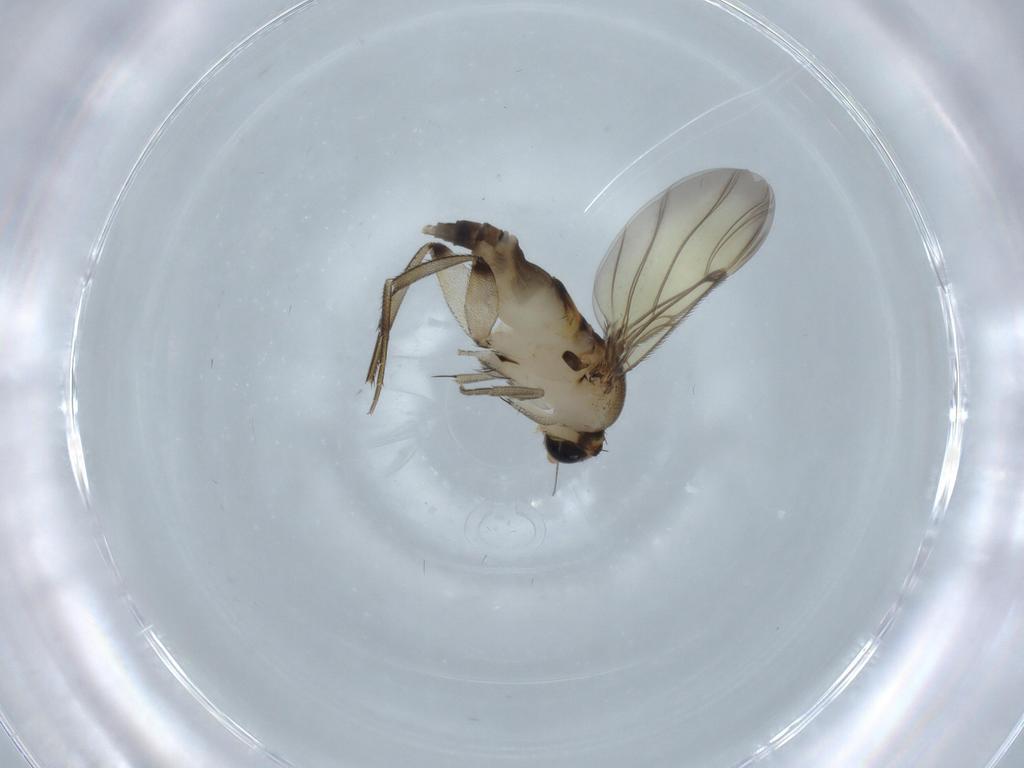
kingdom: Animalia
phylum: Arthropoda
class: Insecta
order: Diptera
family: Phoridae
